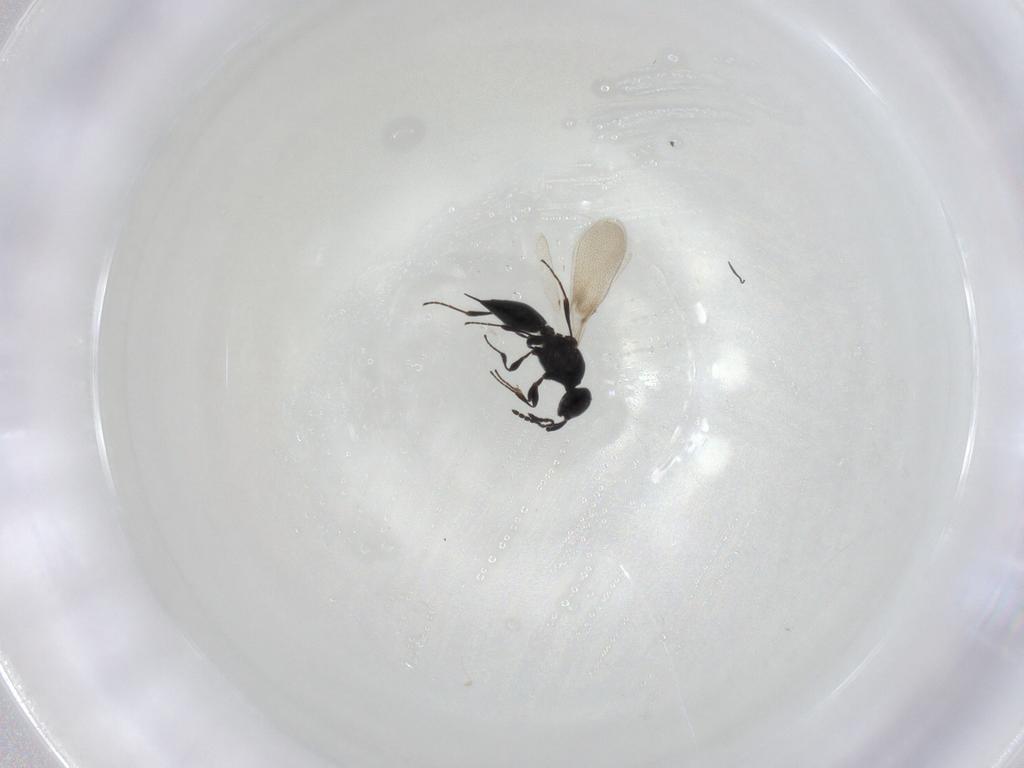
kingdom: Animalia
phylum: Arthropoda
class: Insecta
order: Hymenoptera
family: Platygastridae
